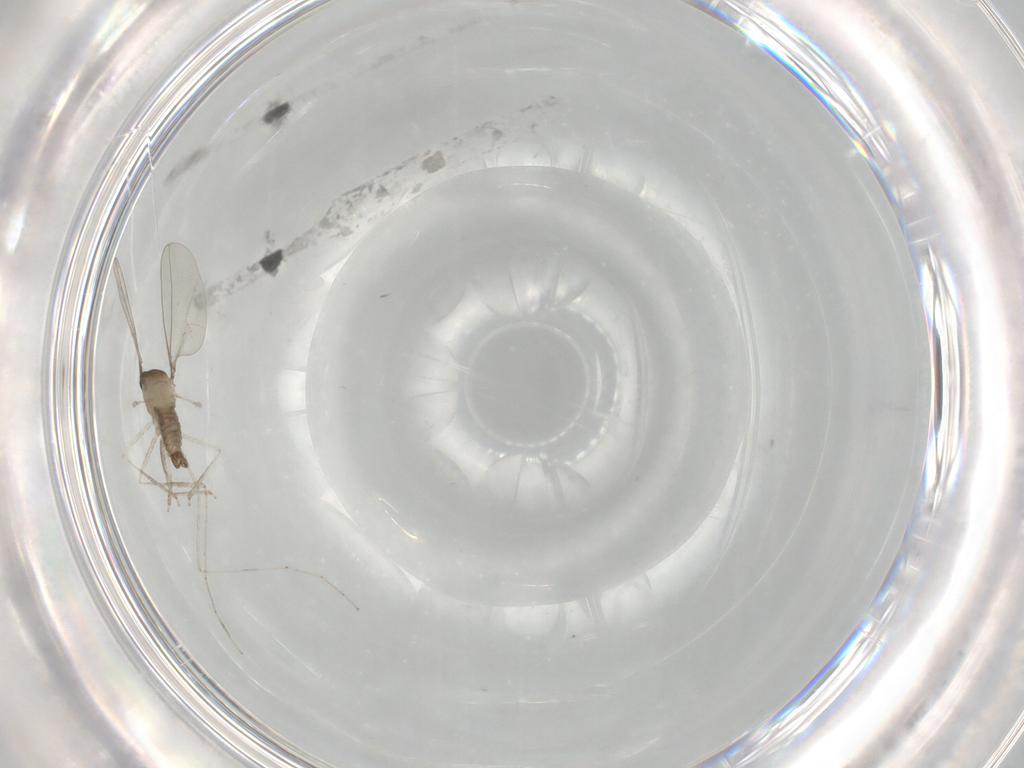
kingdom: Animalia
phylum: Arthropoda
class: Insecta
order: Diptera
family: Cecidomyiidae
